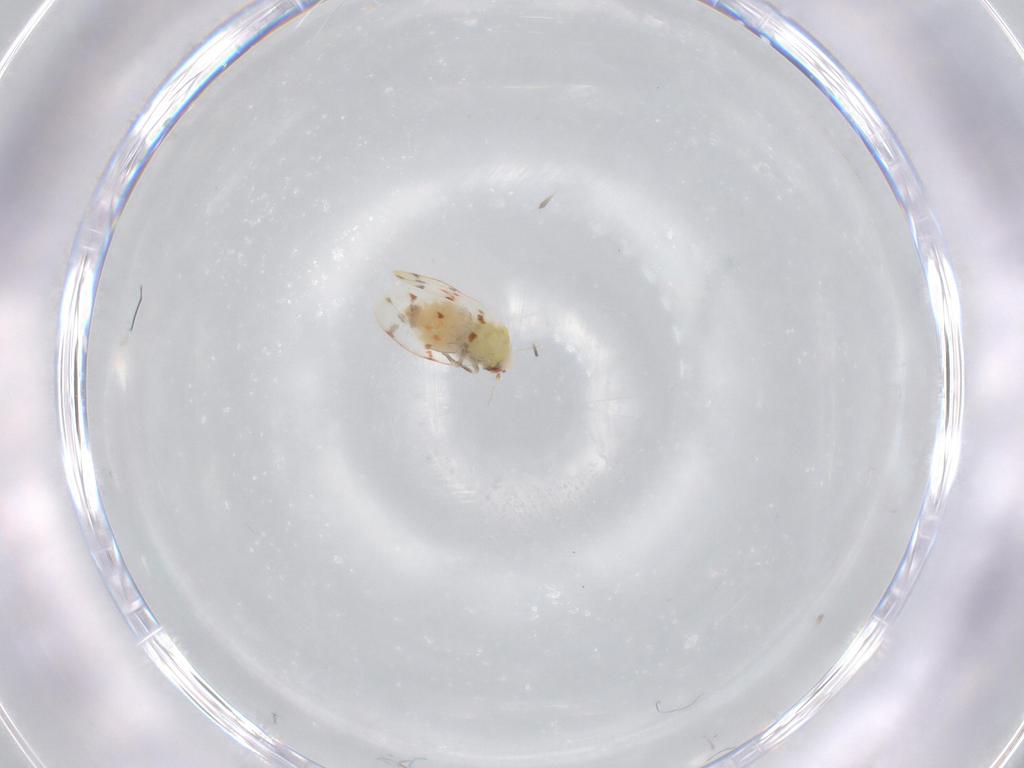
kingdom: Animalia
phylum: Arthropoda
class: Insecta
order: Hemiptera
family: Aleyrodidae
